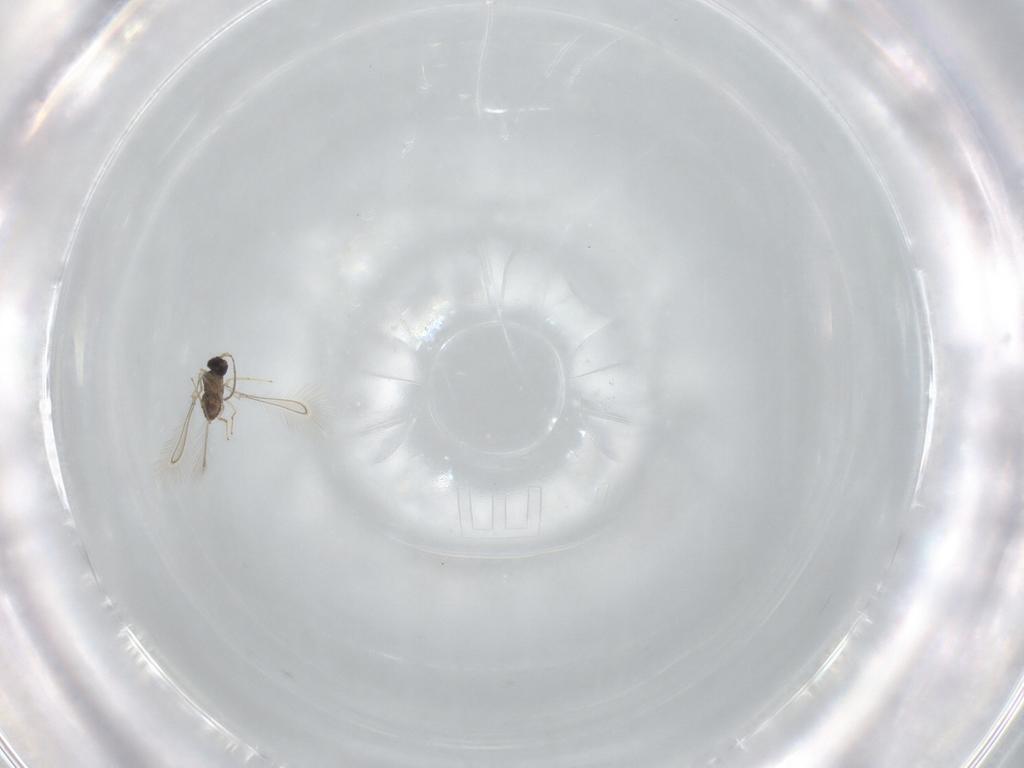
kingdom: Animalia
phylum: Arthropoda
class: Insecta
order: Hymenoptera
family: Mymaridae
